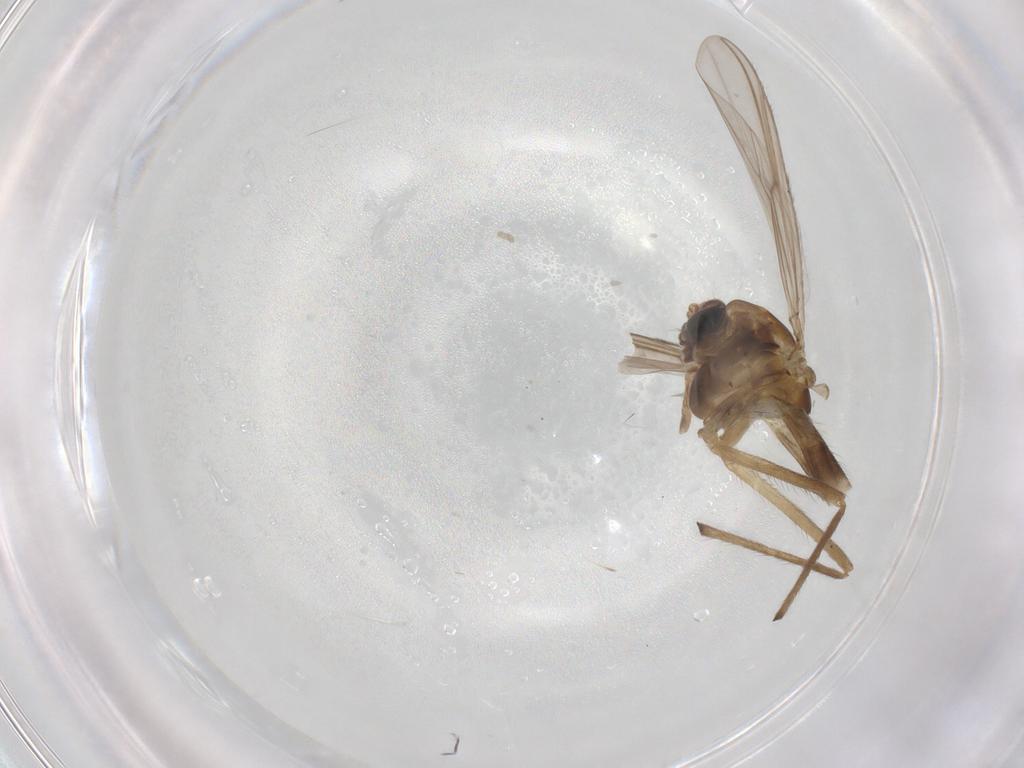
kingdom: Animalia
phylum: Arthropoda
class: Insecta
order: Diptera
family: Phoridae
